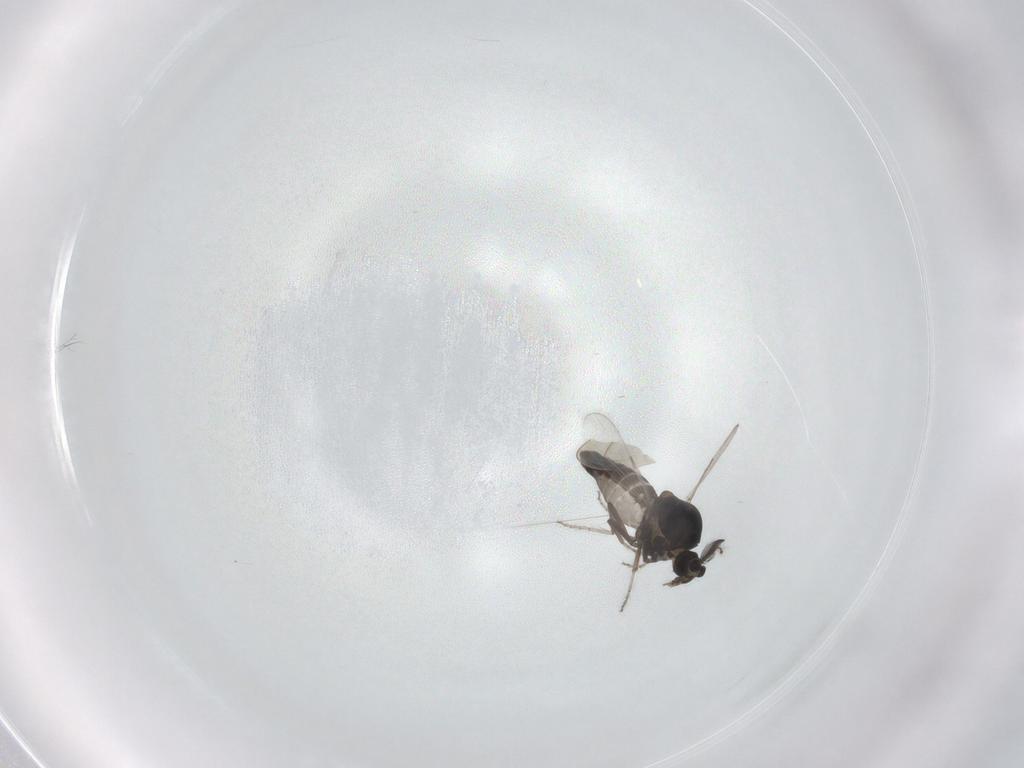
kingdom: Animalia
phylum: Arthropoda
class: Insecta
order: Diptera
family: Ceratopogonidae
